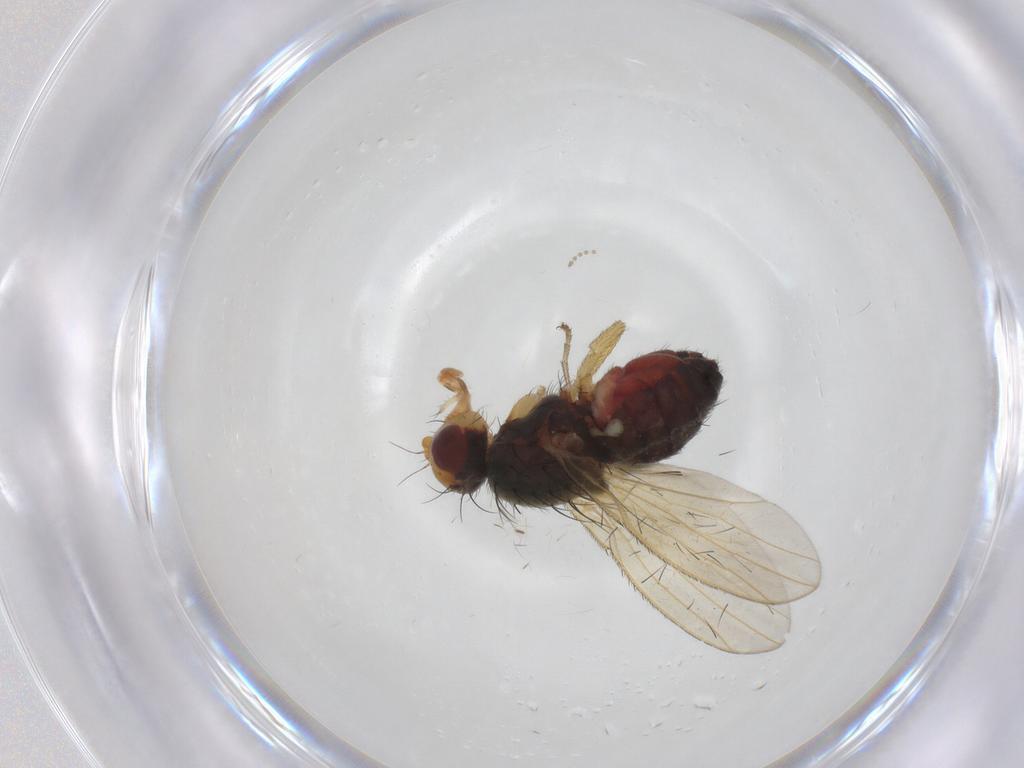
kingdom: Animalia
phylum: Arthropoda
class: Insecta
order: Diptera
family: Heleomyzidae
